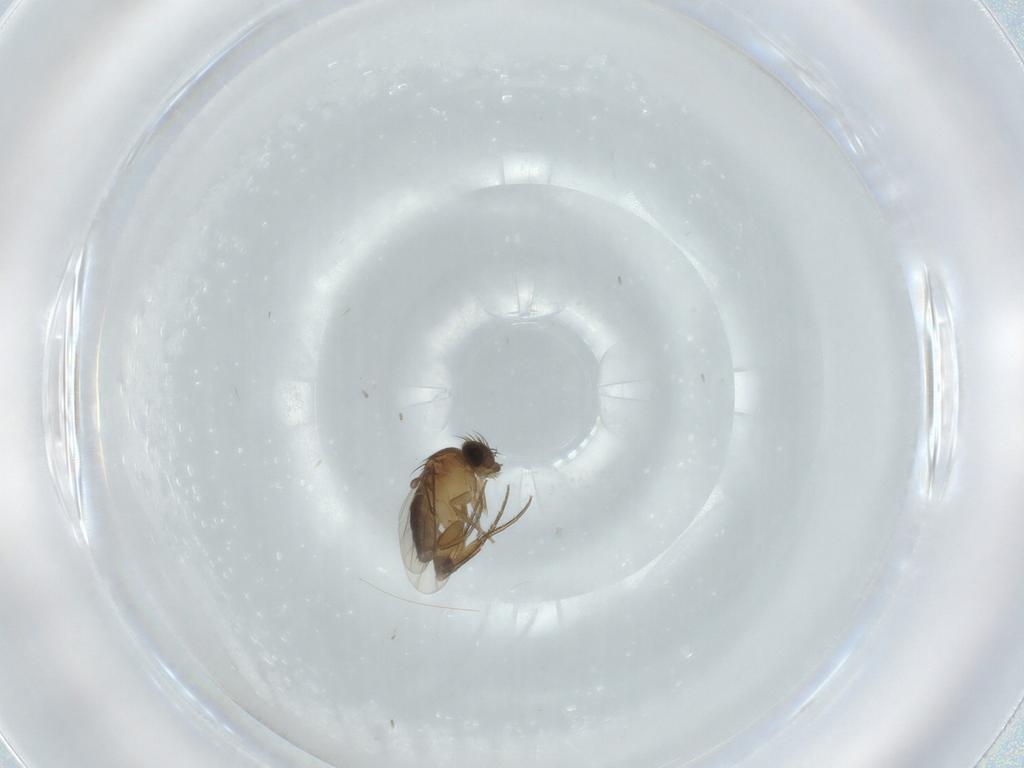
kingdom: Animalia
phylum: Arthropoda
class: Insecta
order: Diptera
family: Phoridae
